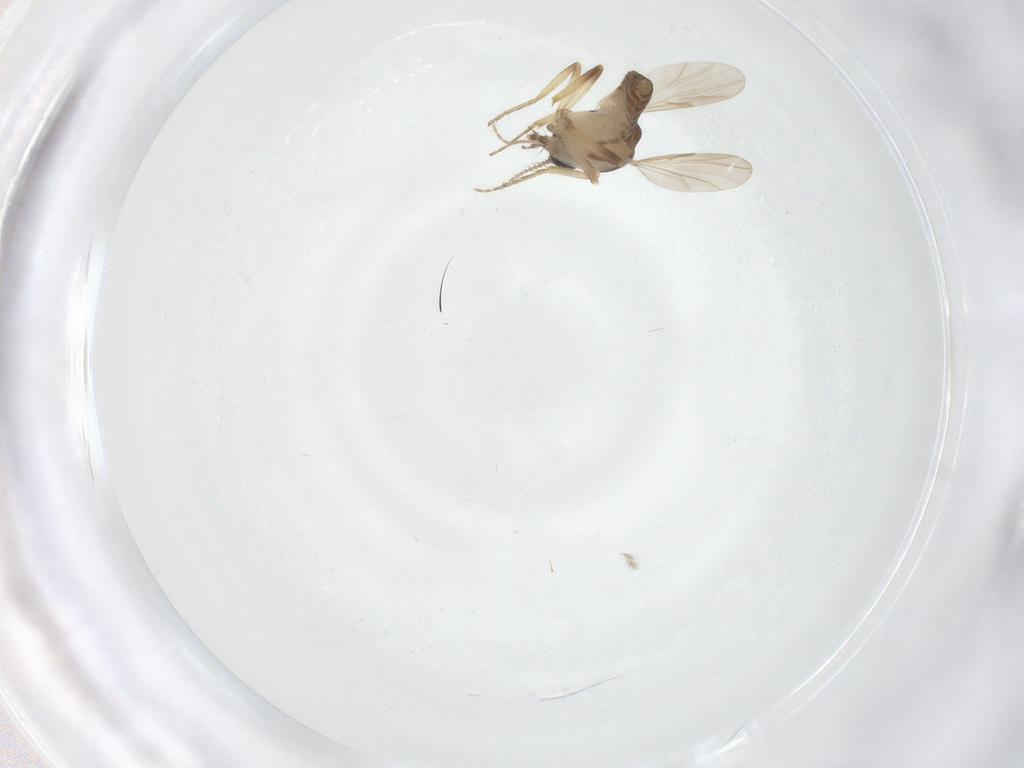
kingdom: Animalia
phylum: Arthropoda
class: Insecta
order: Diptera
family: Ceratopogonidae
